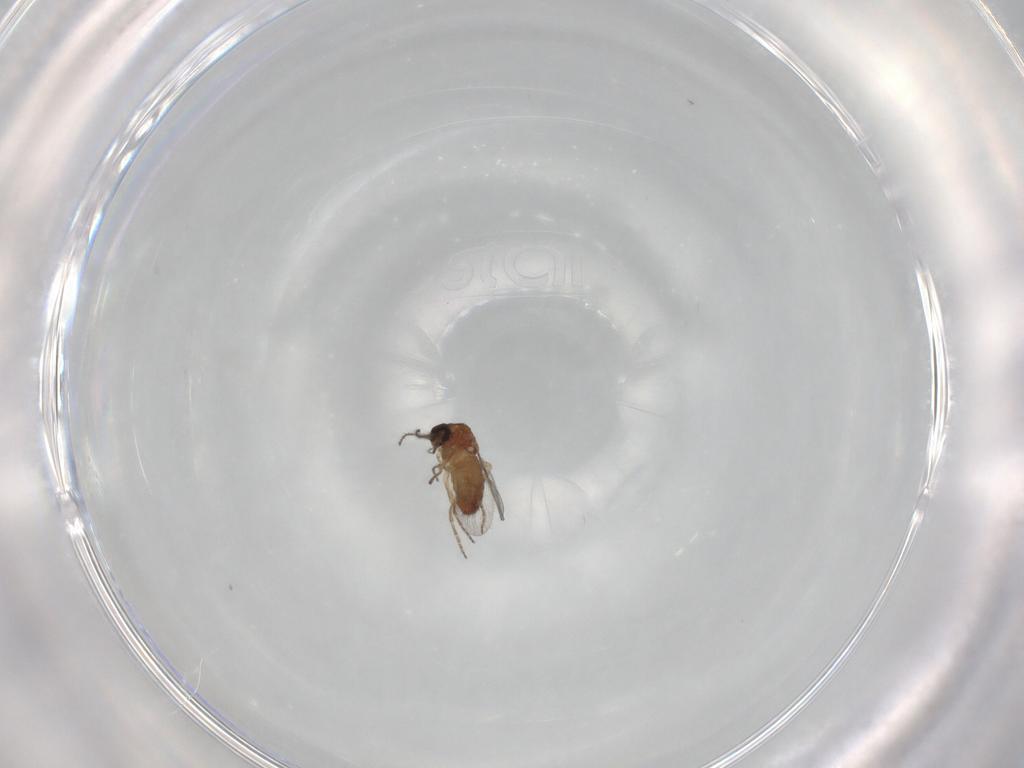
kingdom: Animalia
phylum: Arthropoda
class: Insecta
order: Diptera
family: Ceratopogonidae
